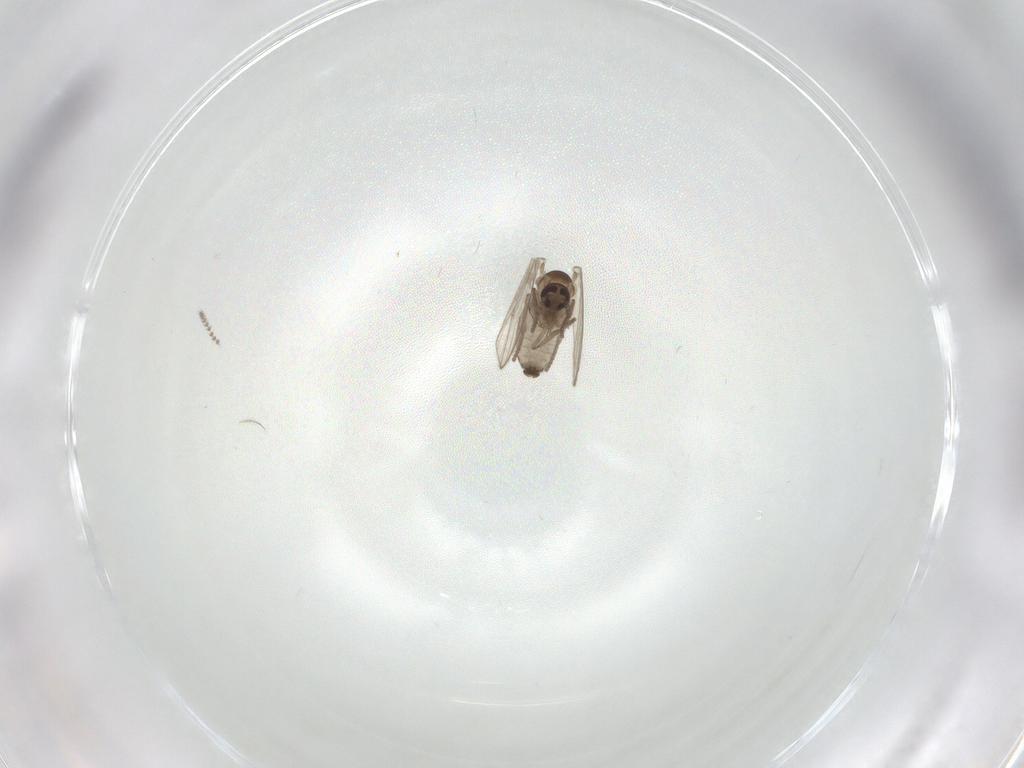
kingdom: Animalia
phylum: Arthropoda
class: Insecta
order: Diptera
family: Psychodidae
